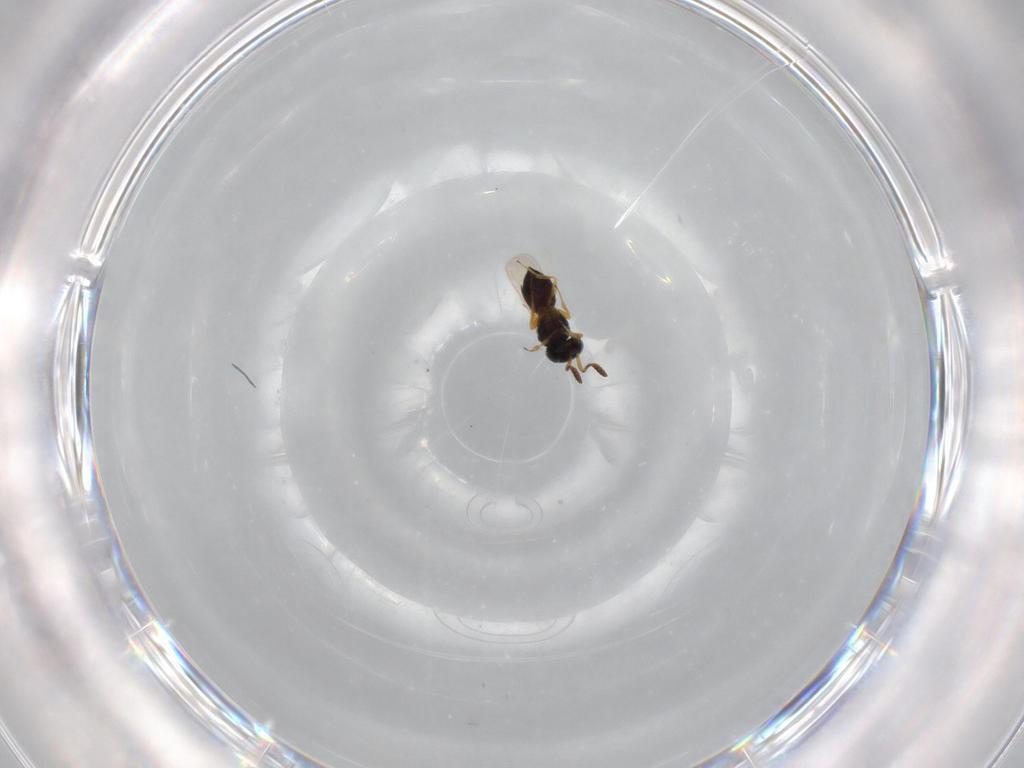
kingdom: Animalia
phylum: Arthropoda
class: Insecta
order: Hymenoptera
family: Scelionidae
